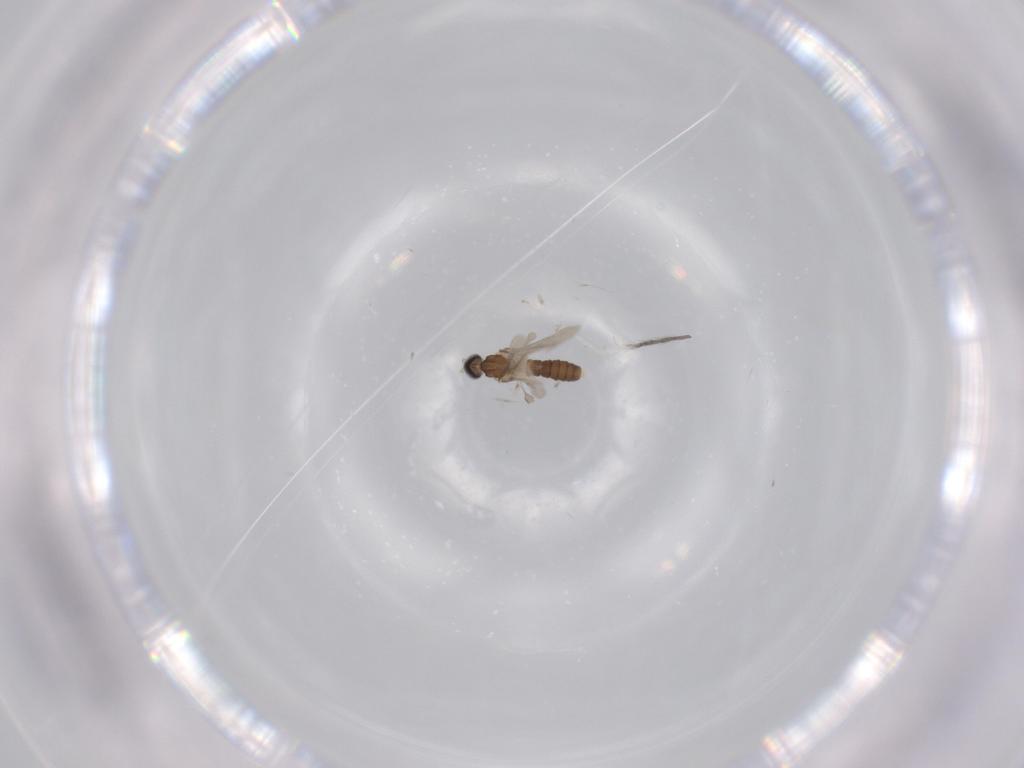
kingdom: Animalia
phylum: Arthropoda
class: Insecta
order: Diptera
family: Cecidomyiidae
